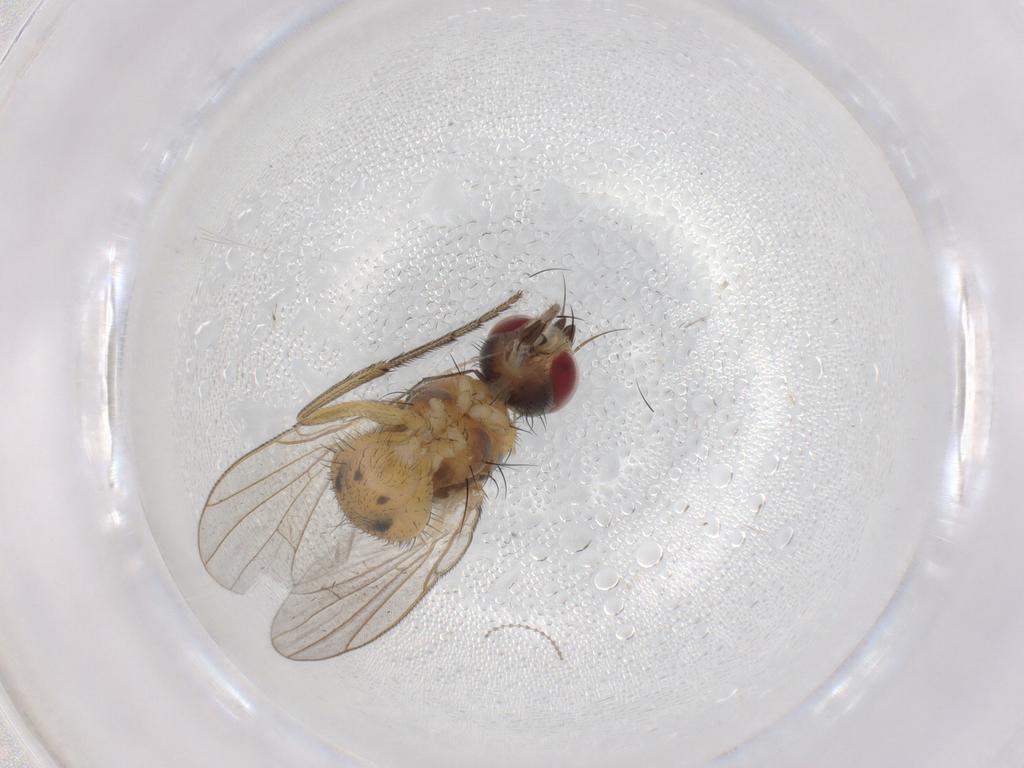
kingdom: Animalia
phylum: Arthropoda
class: Insecta
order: Diptera
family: Muscidae
